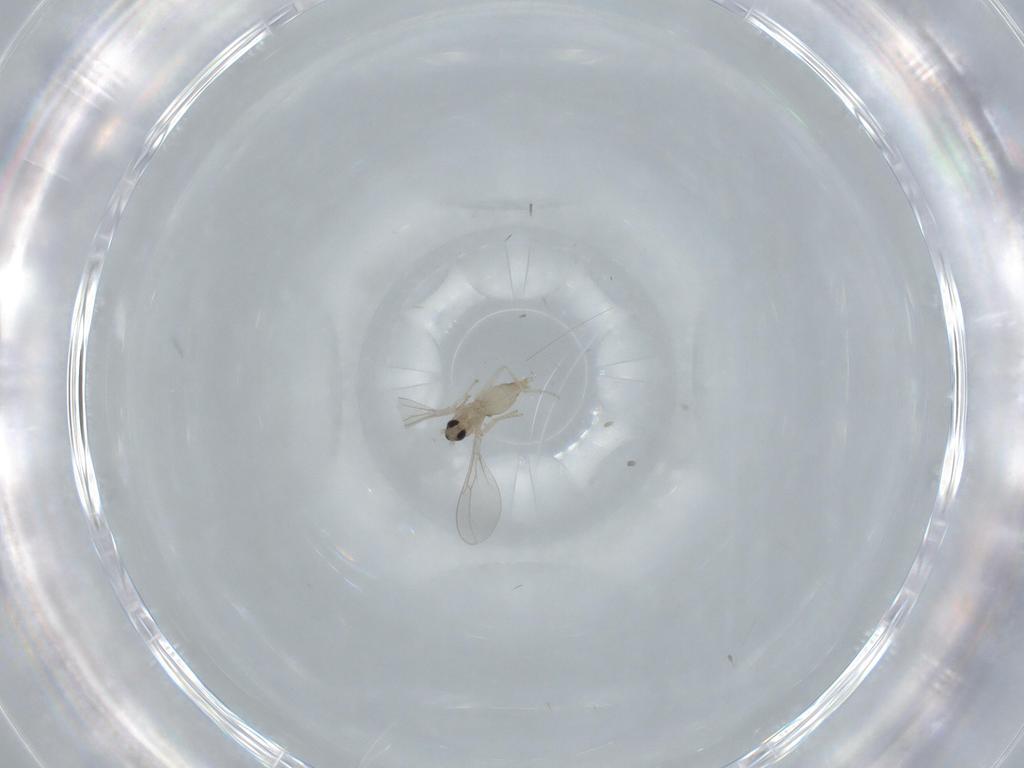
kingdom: Animalia
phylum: Arthropoda
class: Insecta
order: Diptera
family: Cecidomyiidae
